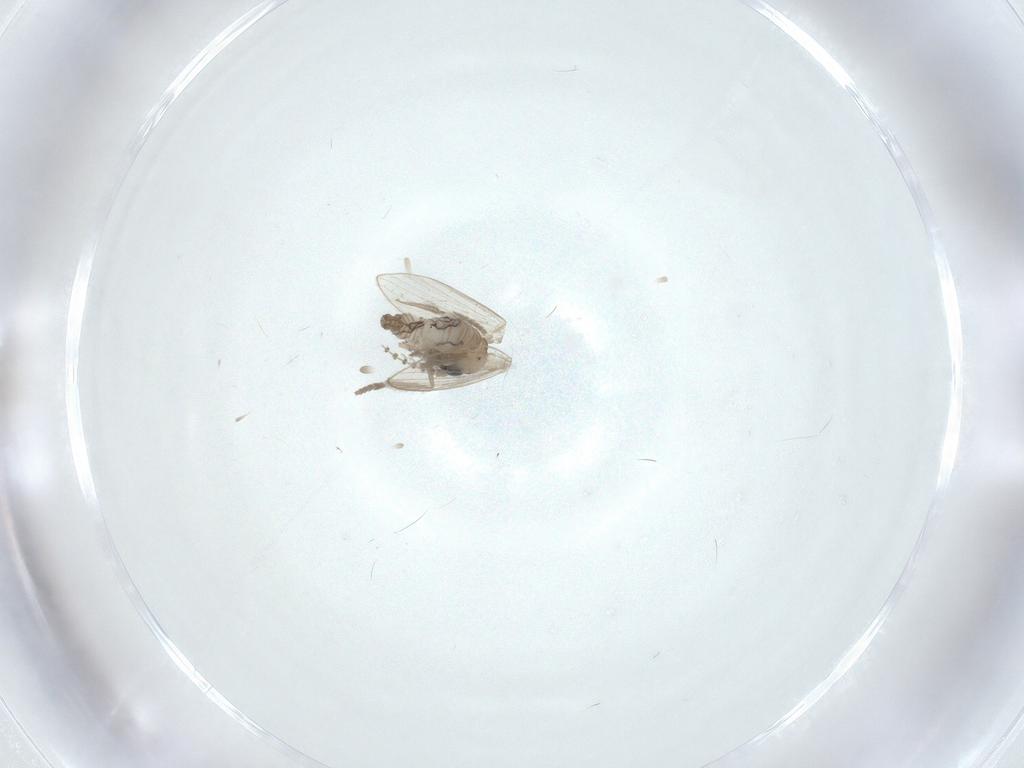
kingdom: Animalia
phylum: Arthropoda
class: Insecta
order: Diptera
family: Psychodidae
